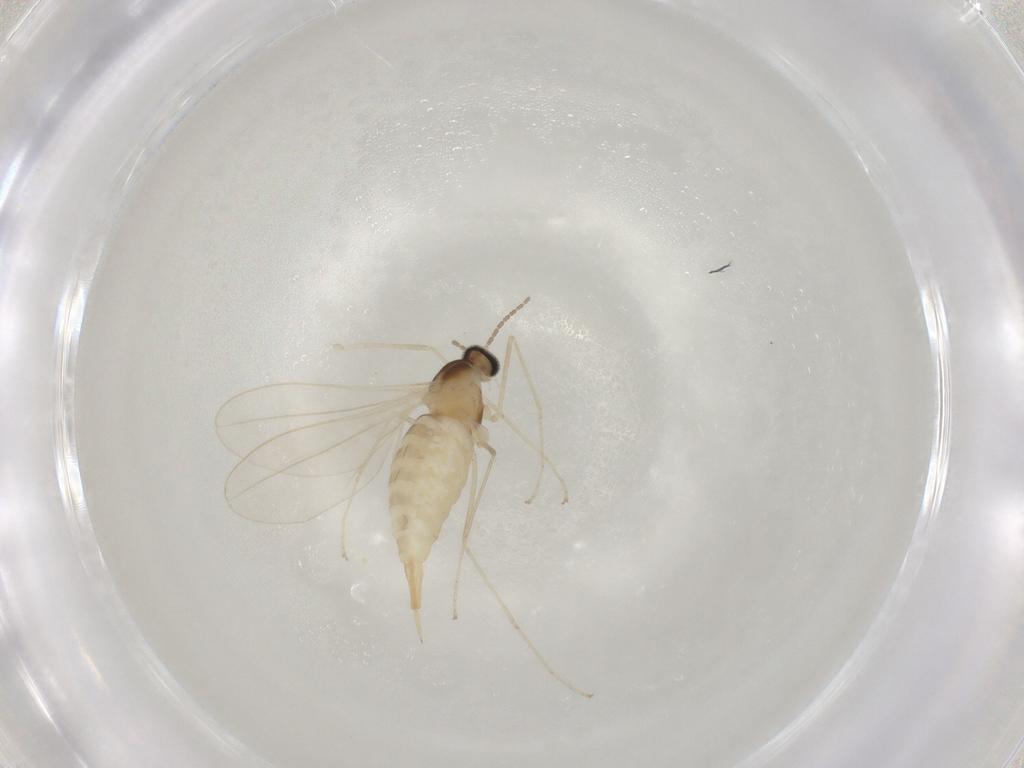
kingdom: Animalia
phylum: Arthropoda
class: Insecta
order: Diptera
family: Cecidomyiidae
